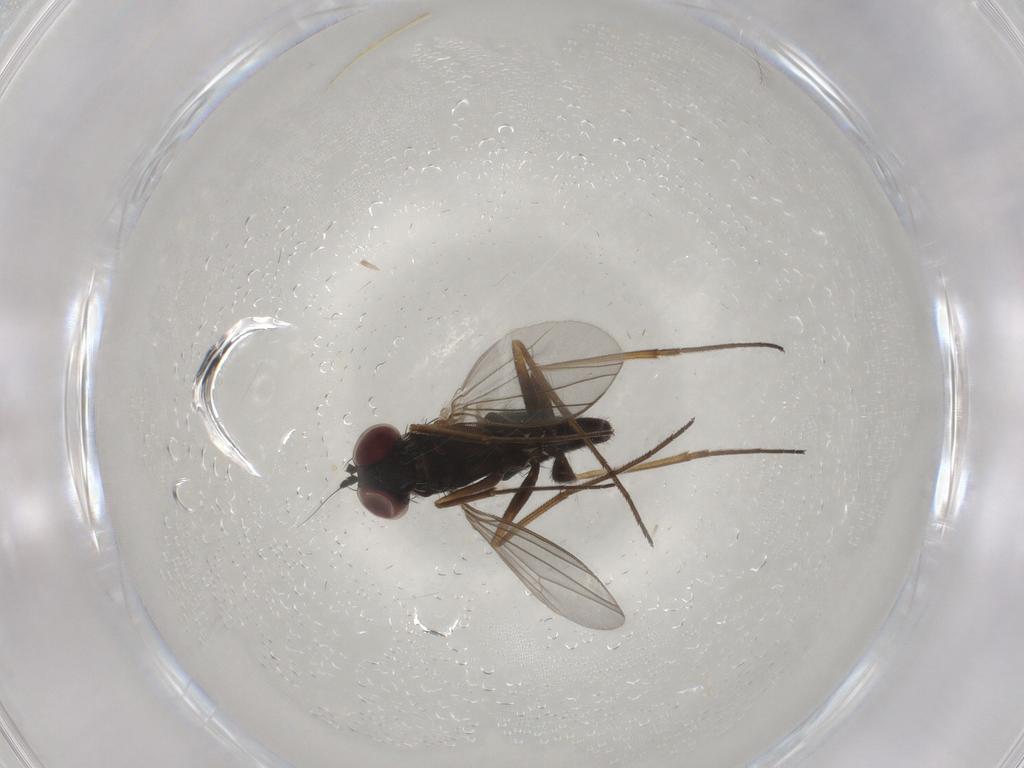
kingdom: Animalia
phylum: Arthropoda
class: Insecta
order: Diptera
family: Dolichopodidae
